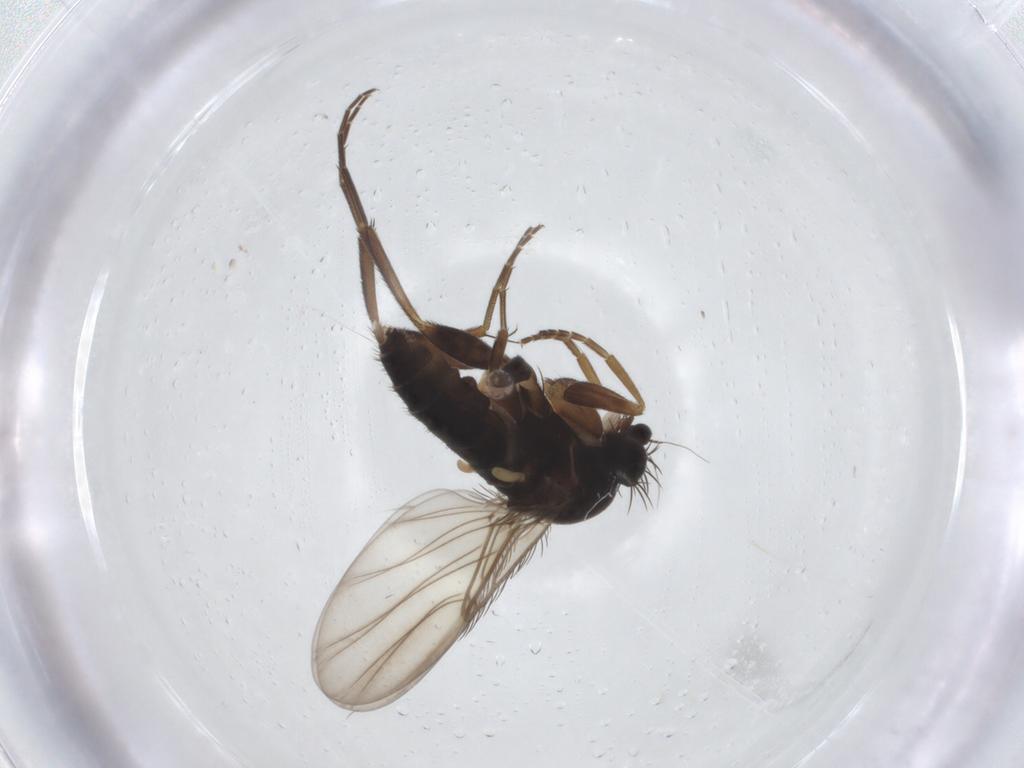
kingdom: Animalia
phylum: Arthropoda
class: Insecta
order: Diptera
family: Phoridae
